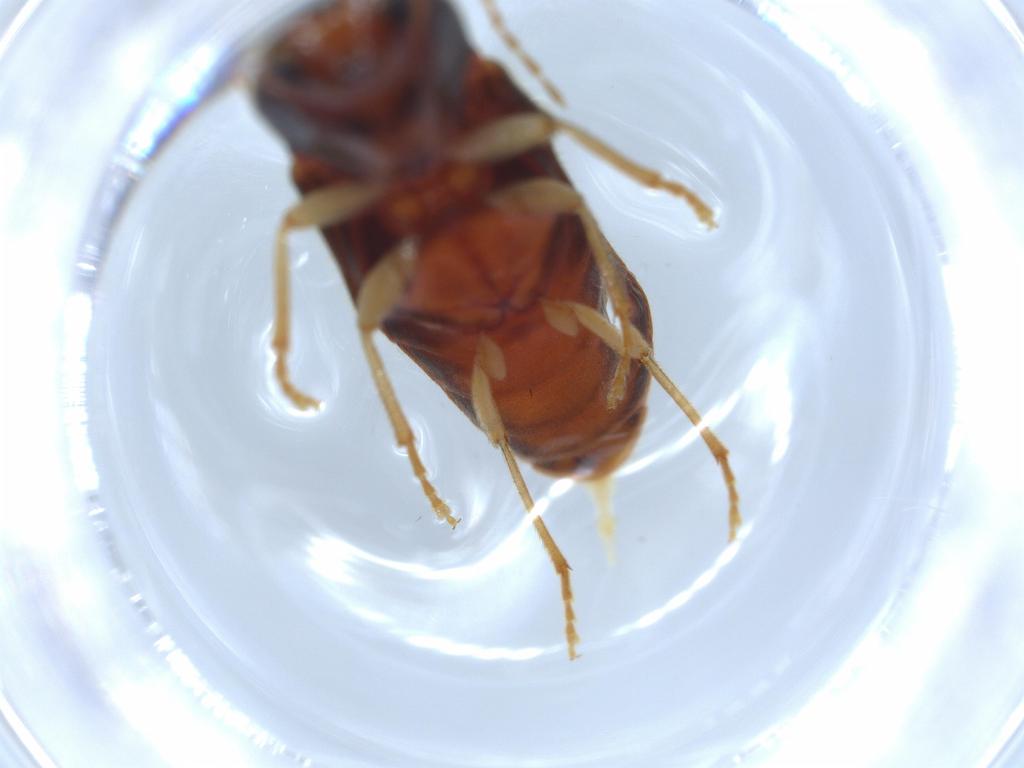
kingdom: Animalia
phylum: Arthropoda
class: Insecta
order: Coleoptera
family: Elateridae
